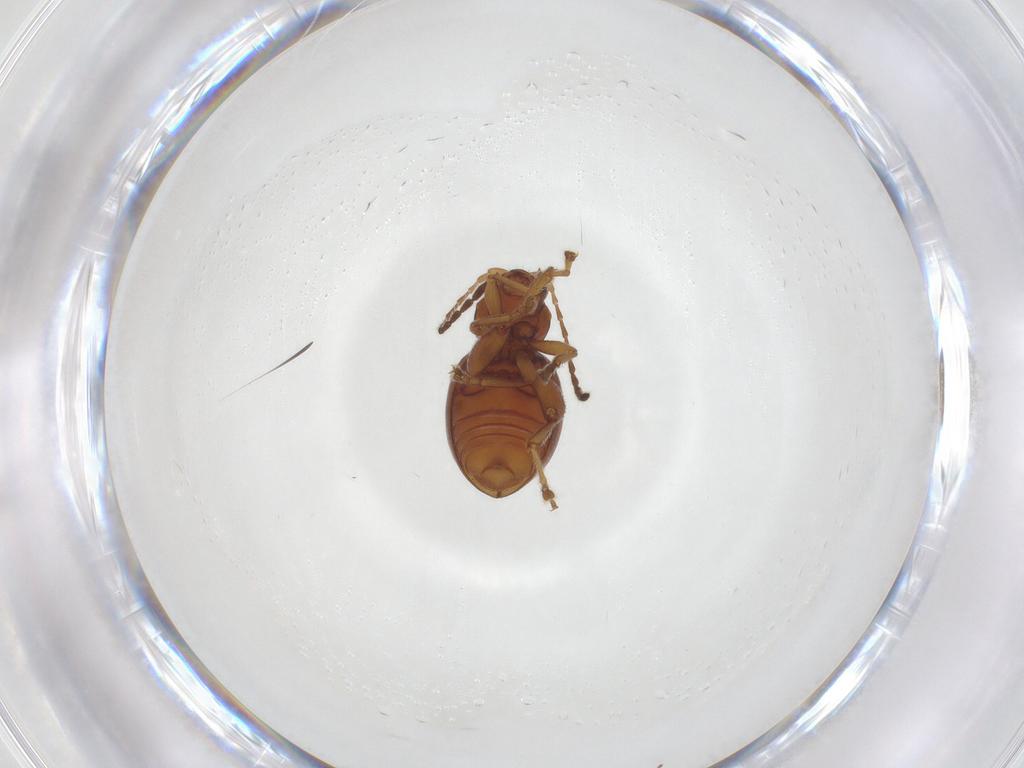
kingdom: Animalia
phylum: Arthropoda
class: Insecta
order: Coleoptera
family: Chrysomelidae
